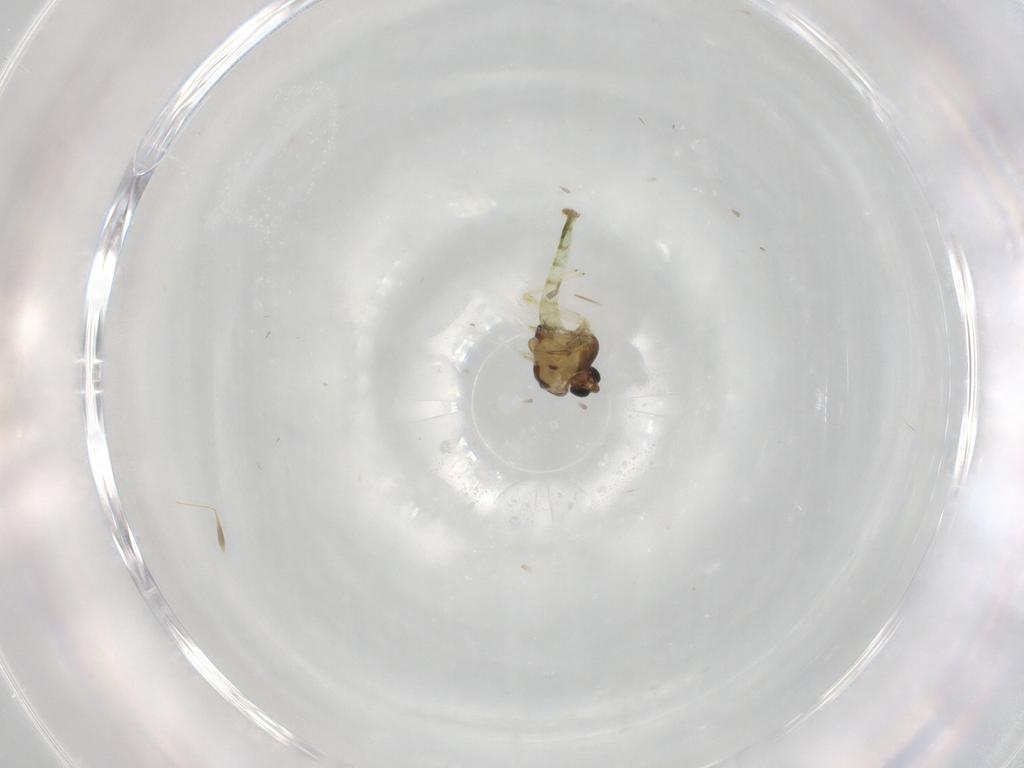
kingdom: Animalia
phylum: Arthropoda
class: Insecta
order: Diptera
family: Chironomidae
